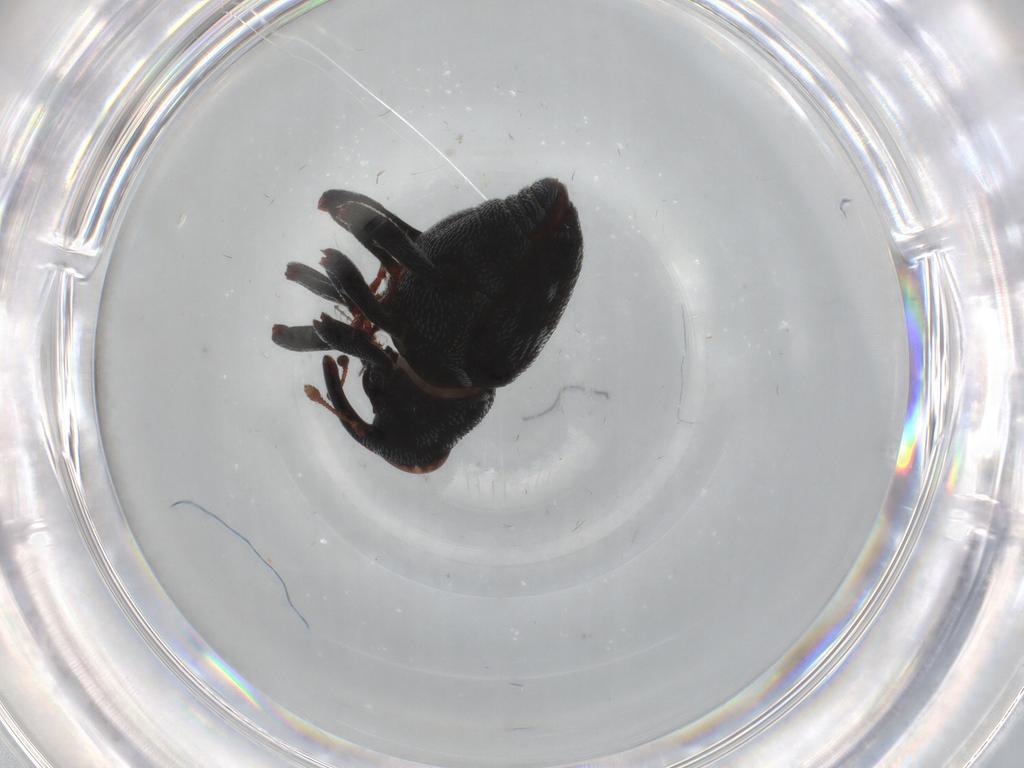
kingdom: Animalia
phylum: Arthropoda
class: Insecta
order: Coleoptera
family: Curculionidae
